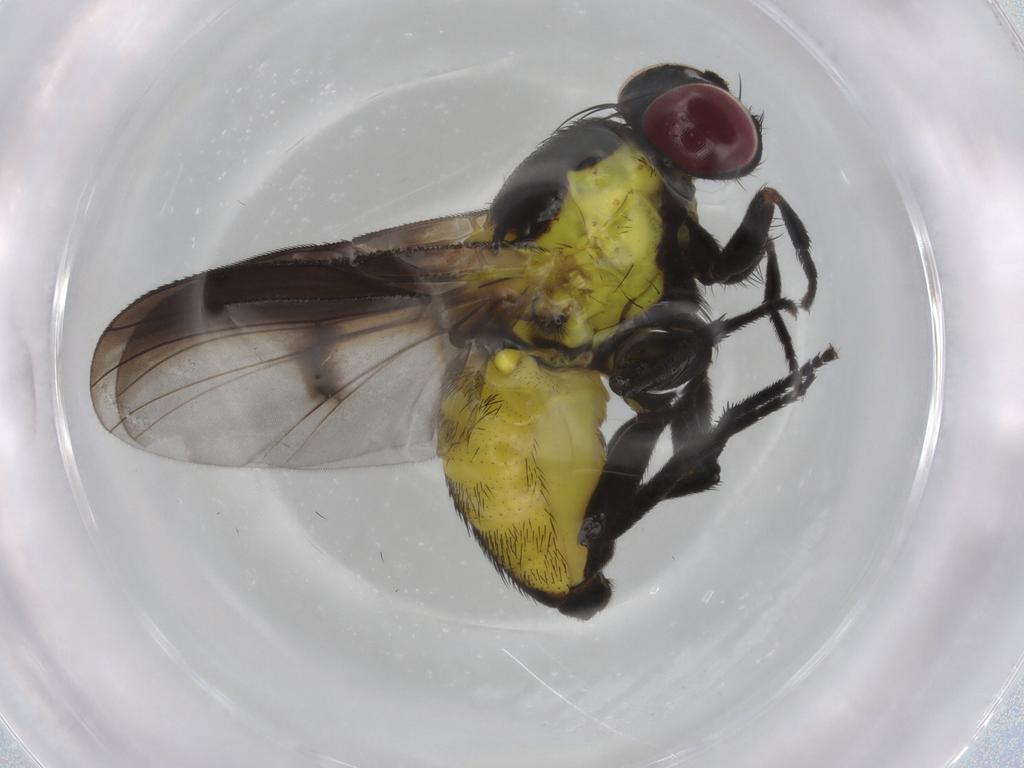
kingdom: Animalia
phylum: Arthropoda
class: Insecta
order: Diptera
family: Agromyzidae
